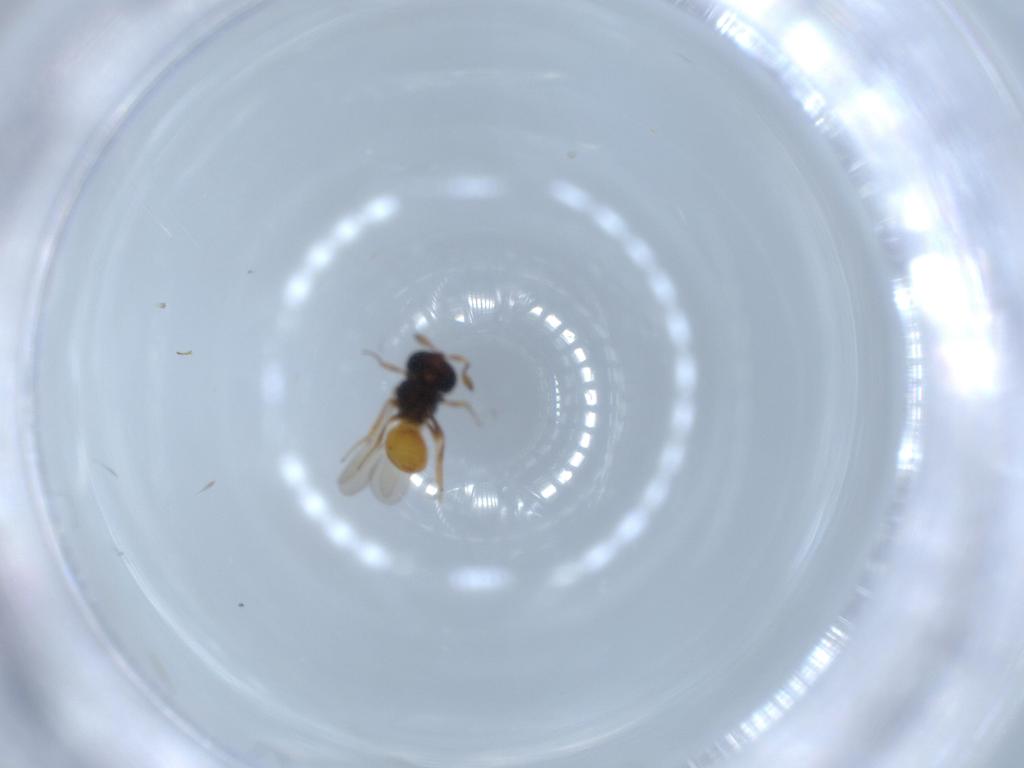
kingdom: Animalia
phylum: Arthropoda
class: Insecta
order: Hymenoptera
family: Scelionidae
